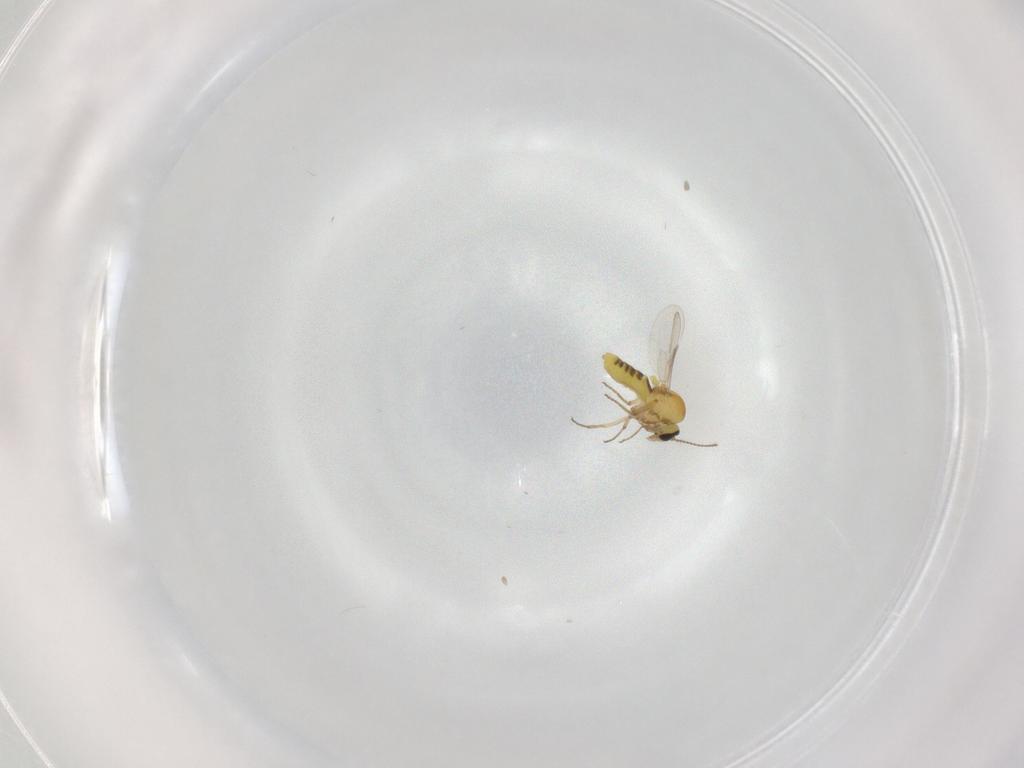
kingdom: Animalia
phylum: Arthropoda
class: Insecta
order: Diptera
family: Ceratopogonidae
